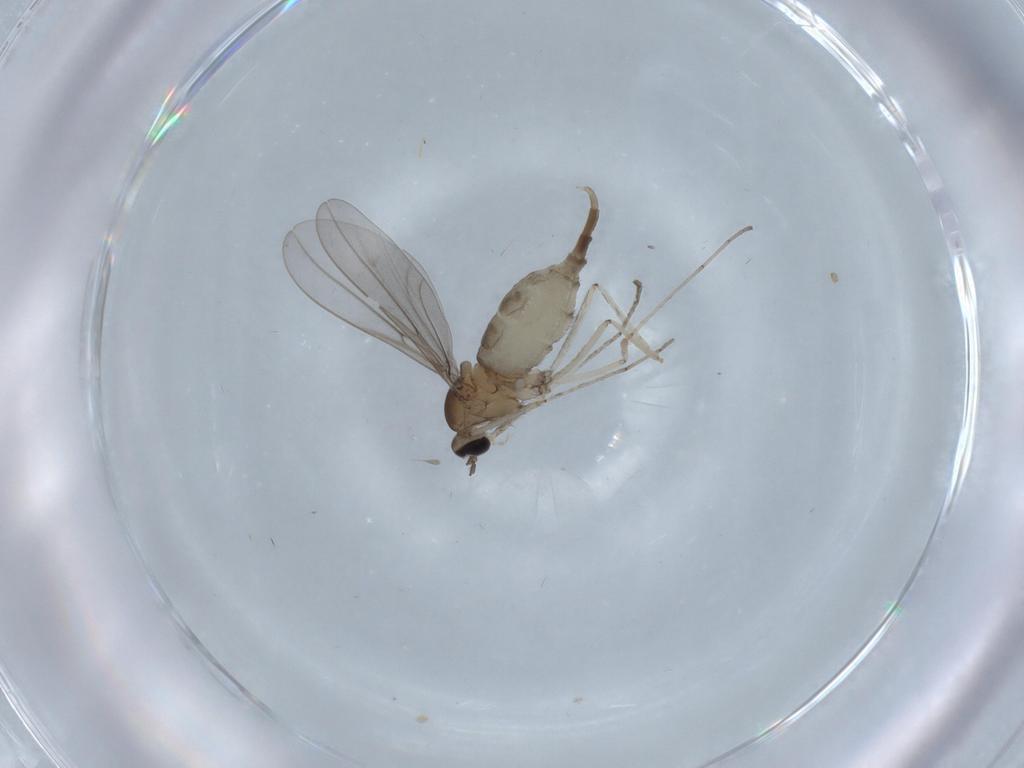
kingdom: Animalia
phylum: Arthropoda
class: Insecta
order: Diptera
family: Cecidomyiidae
